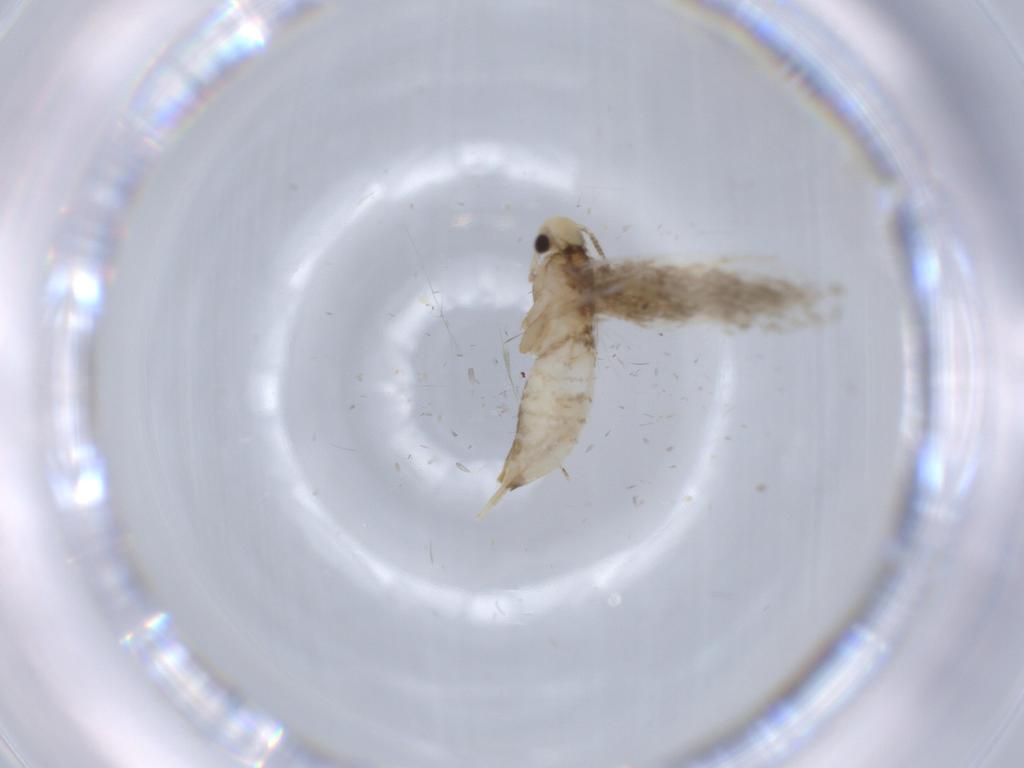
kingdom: Animalia
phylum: Arthropoda
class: Insecta
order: Lepidoptera
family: Tineidae
